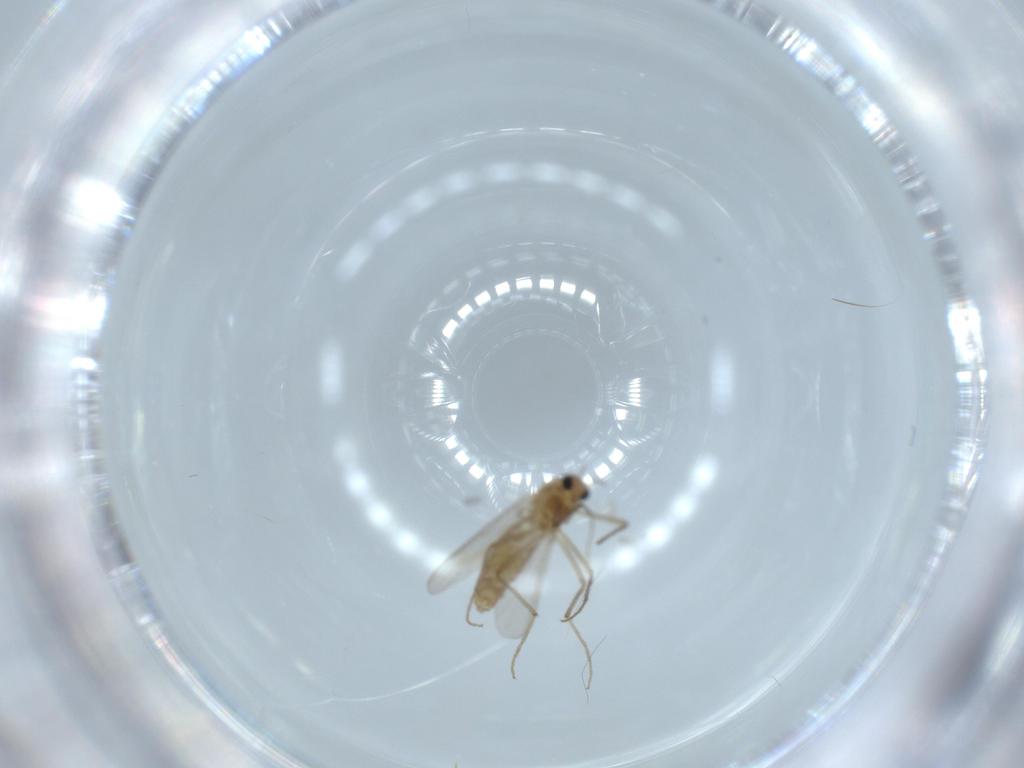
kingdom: Animalia
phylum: Arthropoda
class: Insecta
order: Diptera
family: Chironomidae
